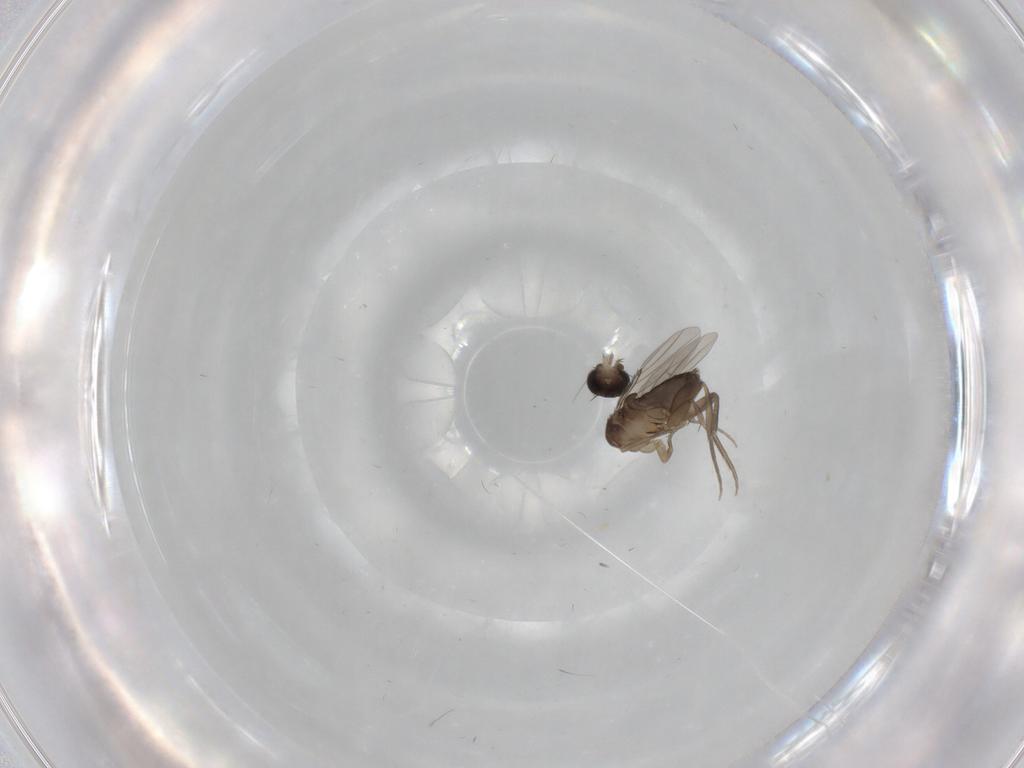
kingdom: Animalia
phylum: Arthropoda
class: Insecta
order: Diptera
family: Phoridae
